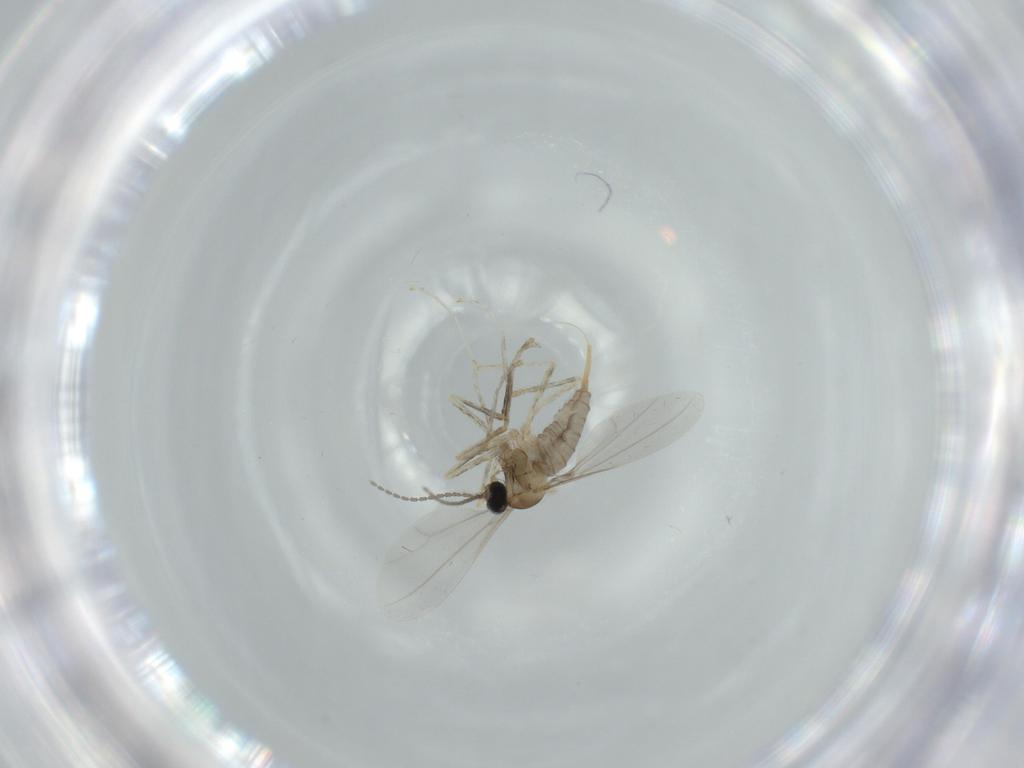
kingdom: Animalia
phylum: Arthropoda
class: Insecta
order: Diptera
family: Cecidomyiidae
